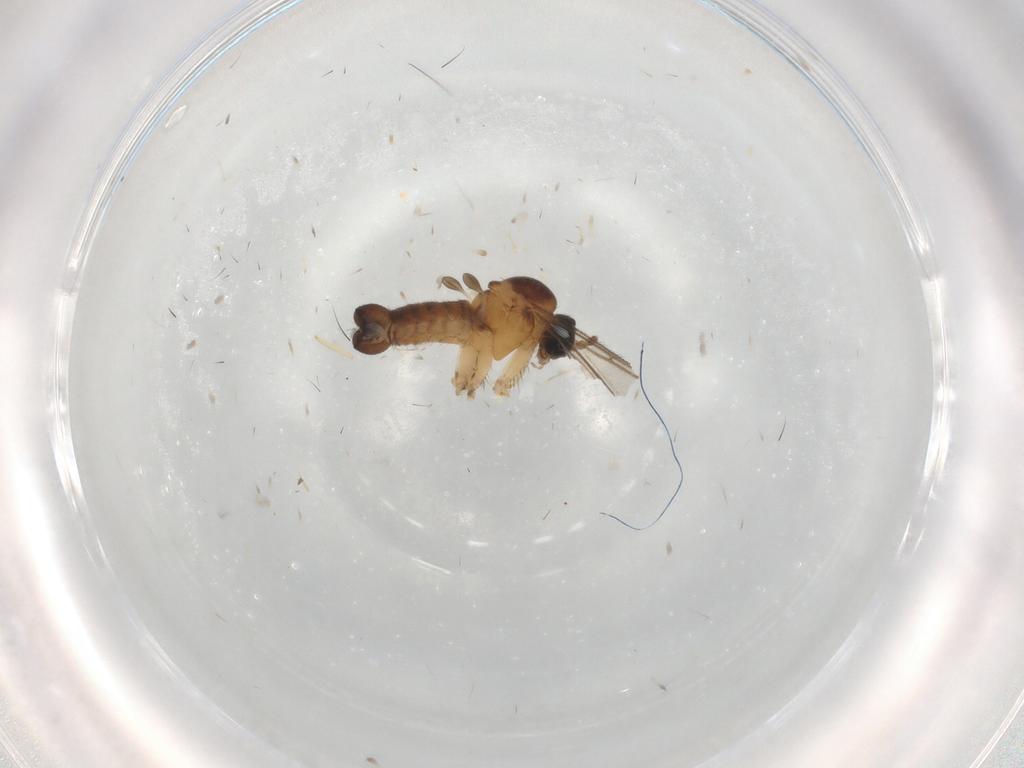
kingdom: Animalia
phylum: Arthropoda
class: Insecta
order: Diptera
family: Sciaridae
